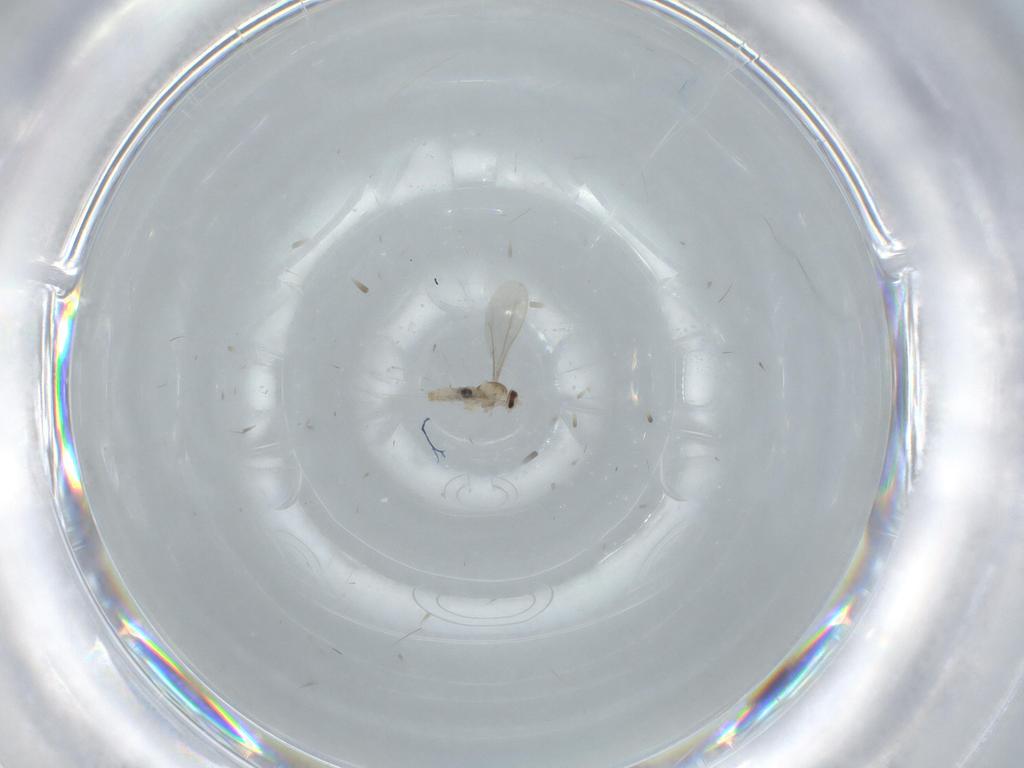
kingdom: Animalia
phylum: Arthropoda
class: Insecta
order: Diptera
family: Cecidomyiidae
